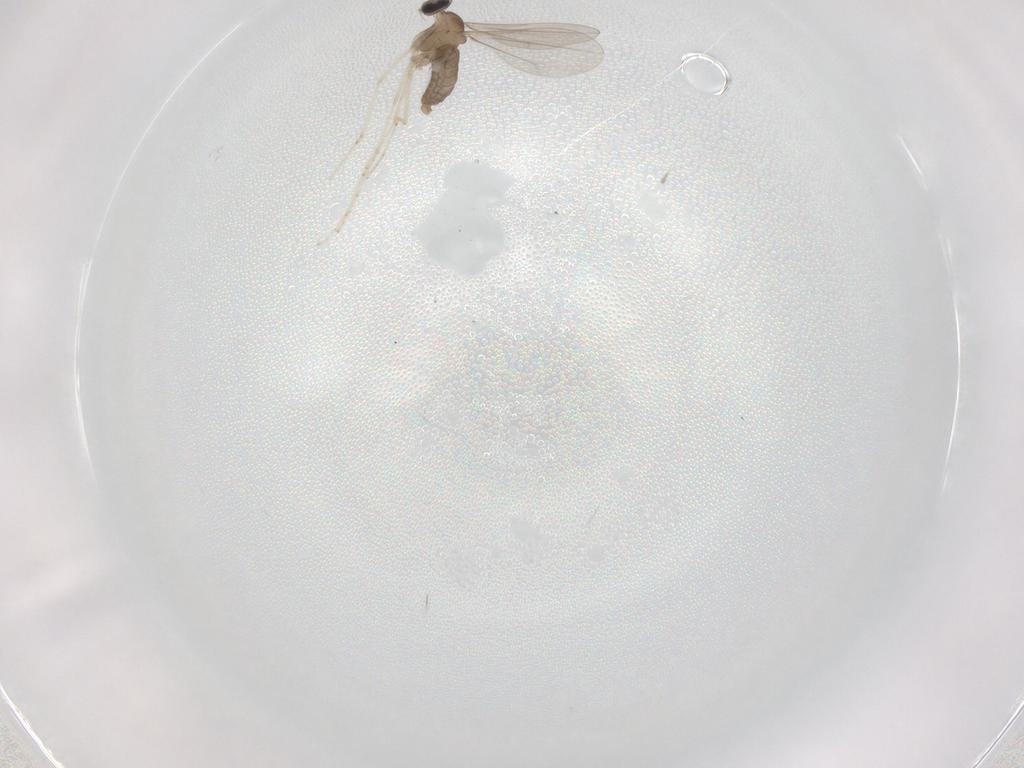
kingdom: Animalia
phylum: Arthropoda
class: Insecta
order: Diptera
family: Cecidomyiidae
